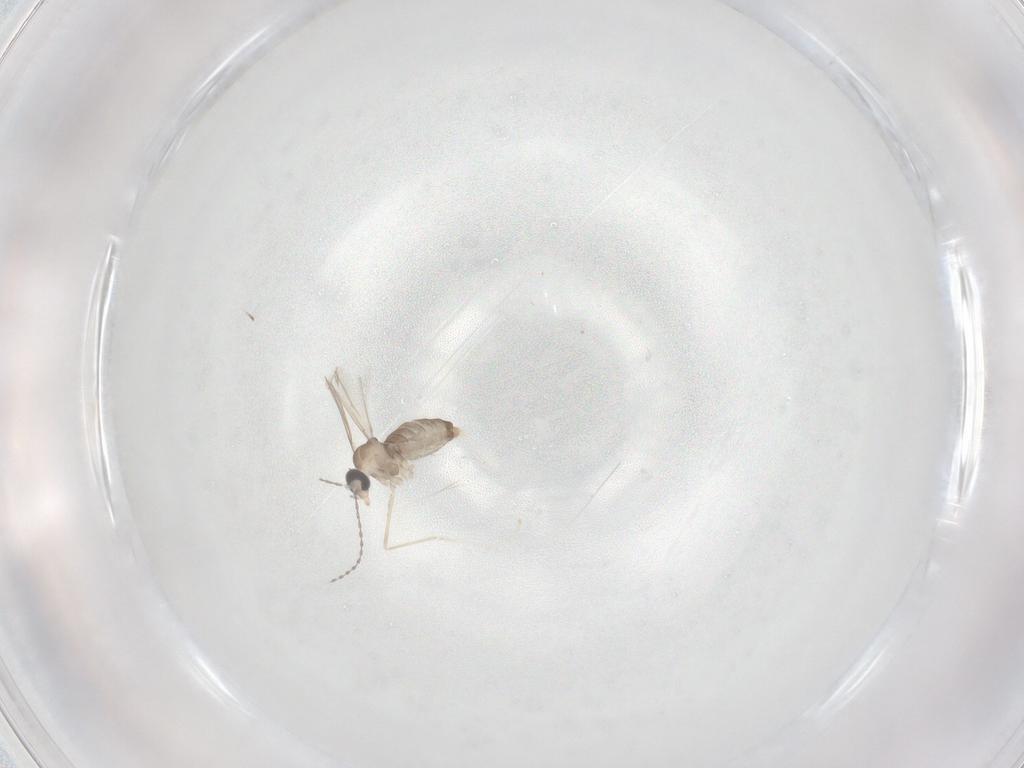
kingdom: Animalia
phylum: Arthropoda
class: Insecta
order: Diptera
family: Cecidomyiidae
